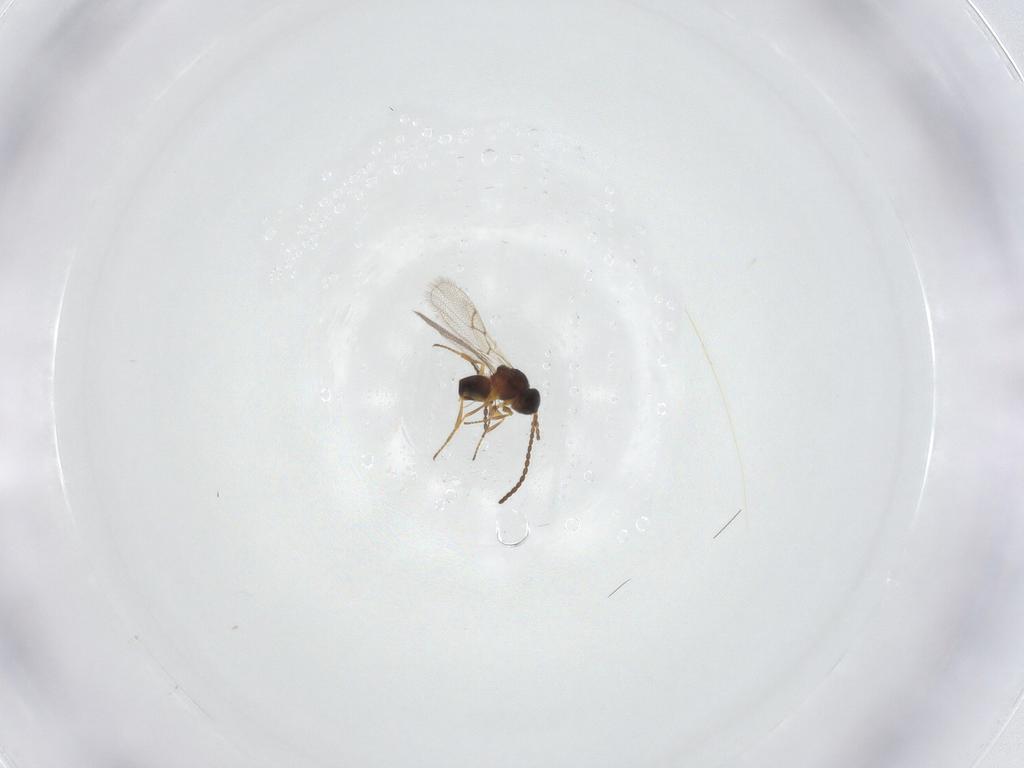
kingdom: Animalia
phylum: Arthropoda
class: Insecta
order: Hymenoptera
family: Figitidae
